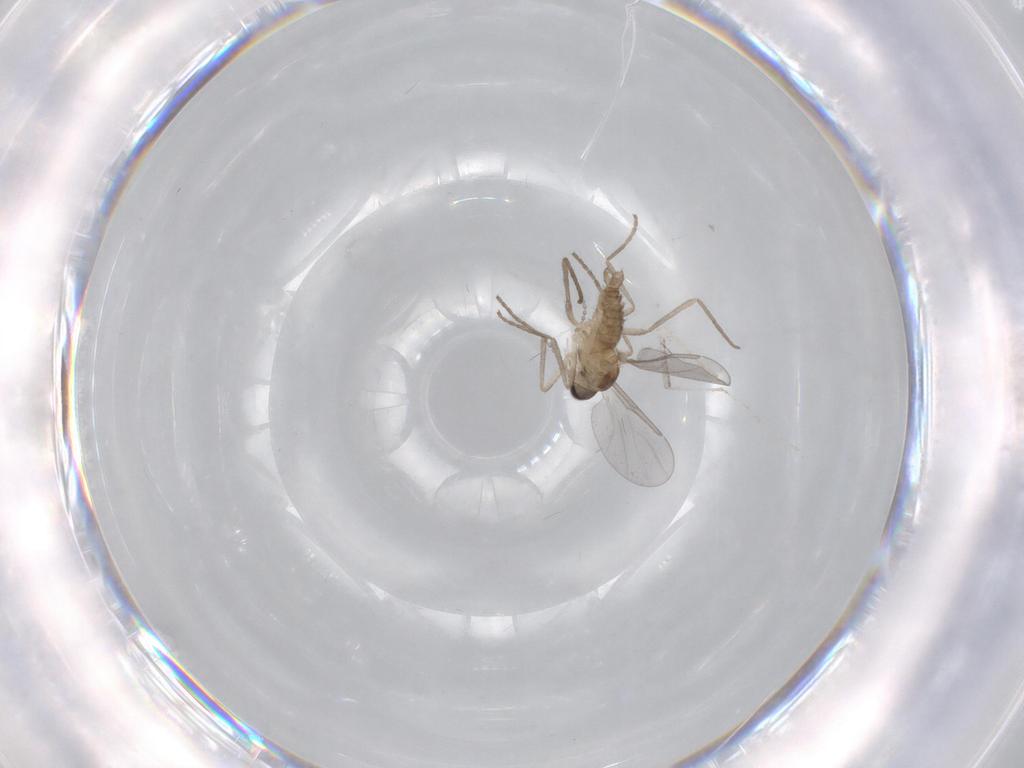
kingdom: Animalia
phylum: Arthropoda
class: Insecta
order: Diptera
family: Cecidomyiidae
